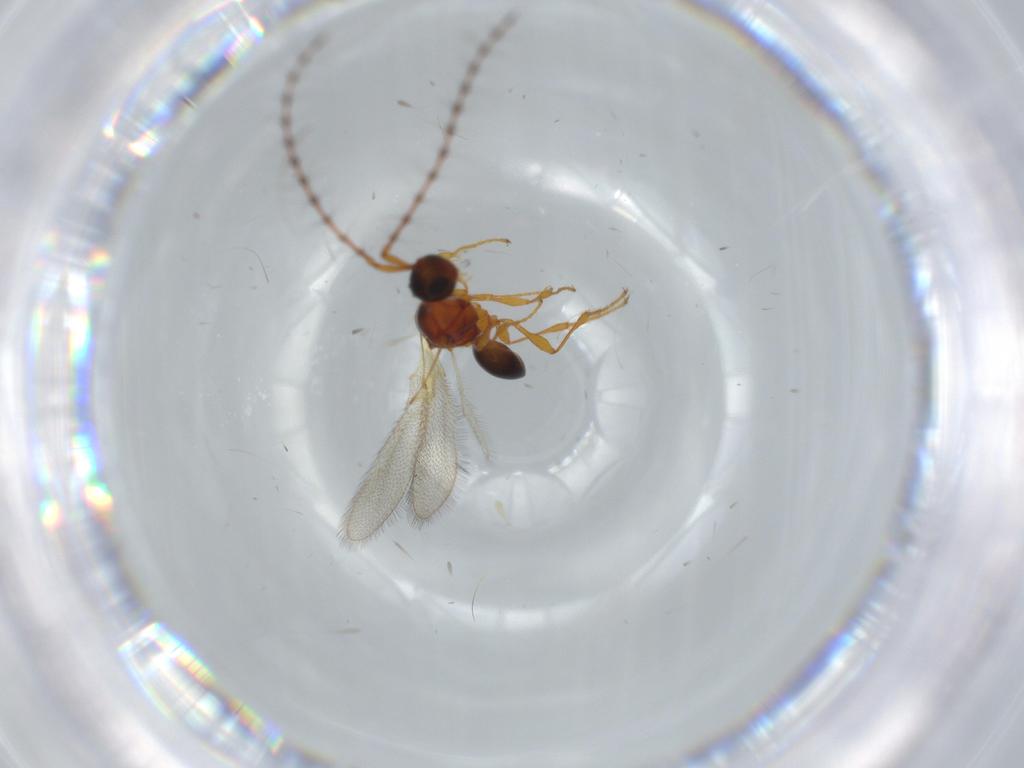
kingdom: Animalia
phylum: Arthropoda
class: Insecta
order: Hymenoptera
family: Diapriidae
